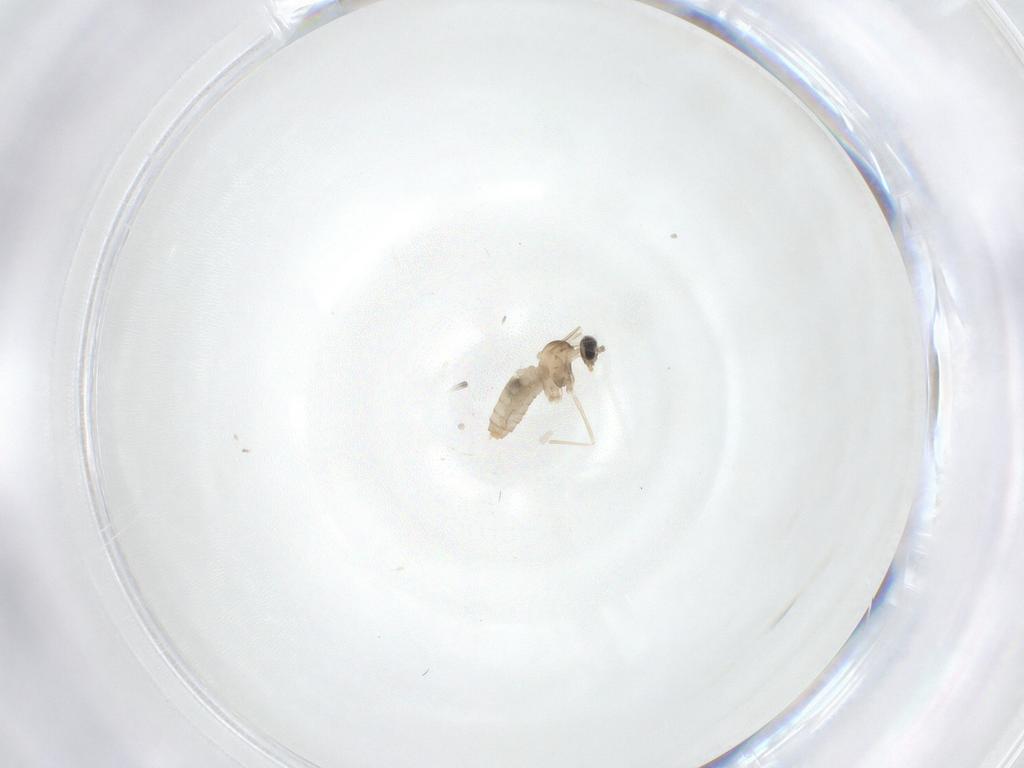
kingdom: Animalia
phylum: Arthropoda
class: Insecta
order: Diptera
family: Cecidomyiidae
